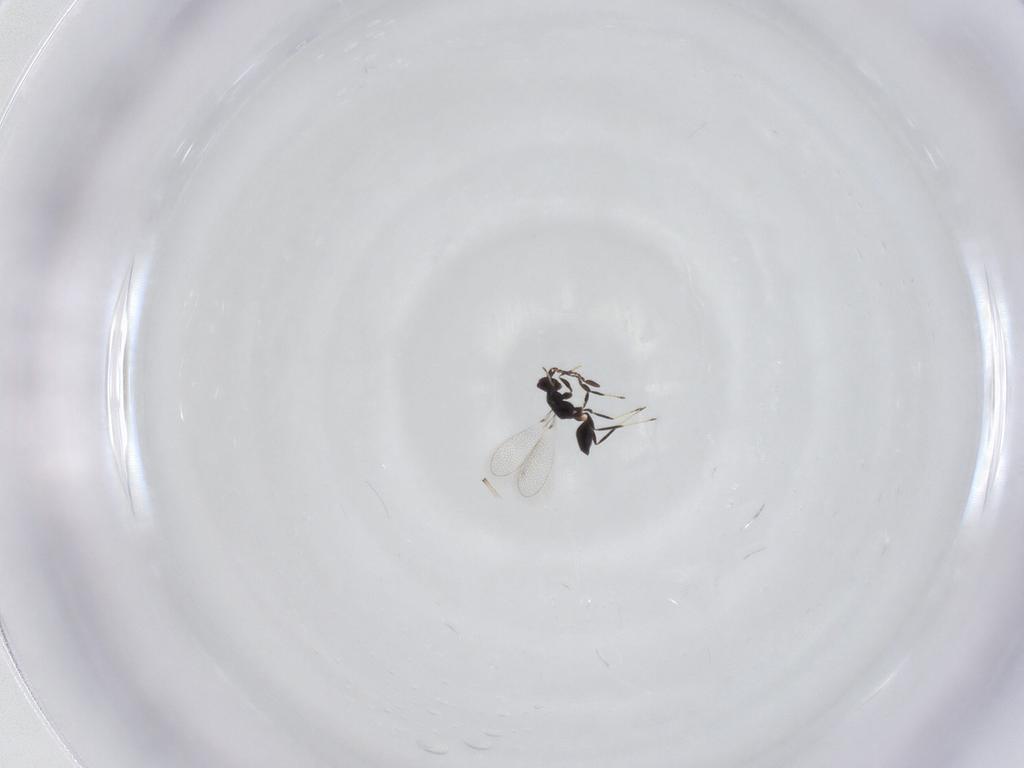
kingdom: Animalia
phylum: Arthropoda
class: Insecta
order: Hymenoptera
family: Mymaridae
